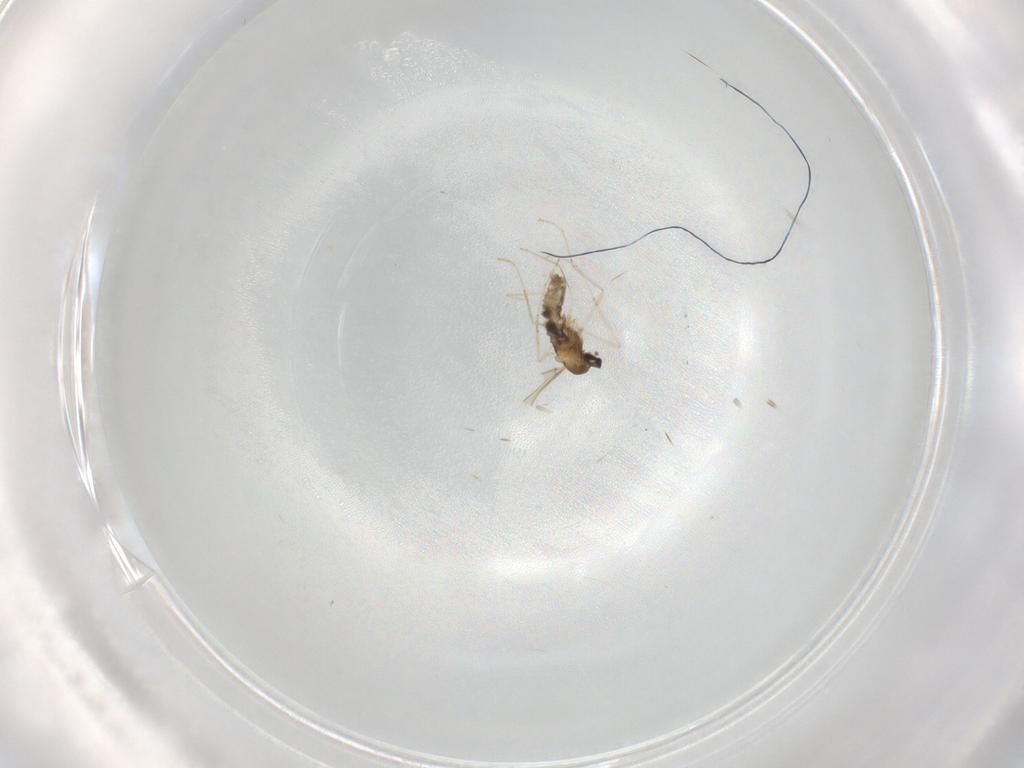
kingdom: Animalia
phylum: Arthropoda
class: Insecta
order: Diptera
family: Cecidomyiidae
